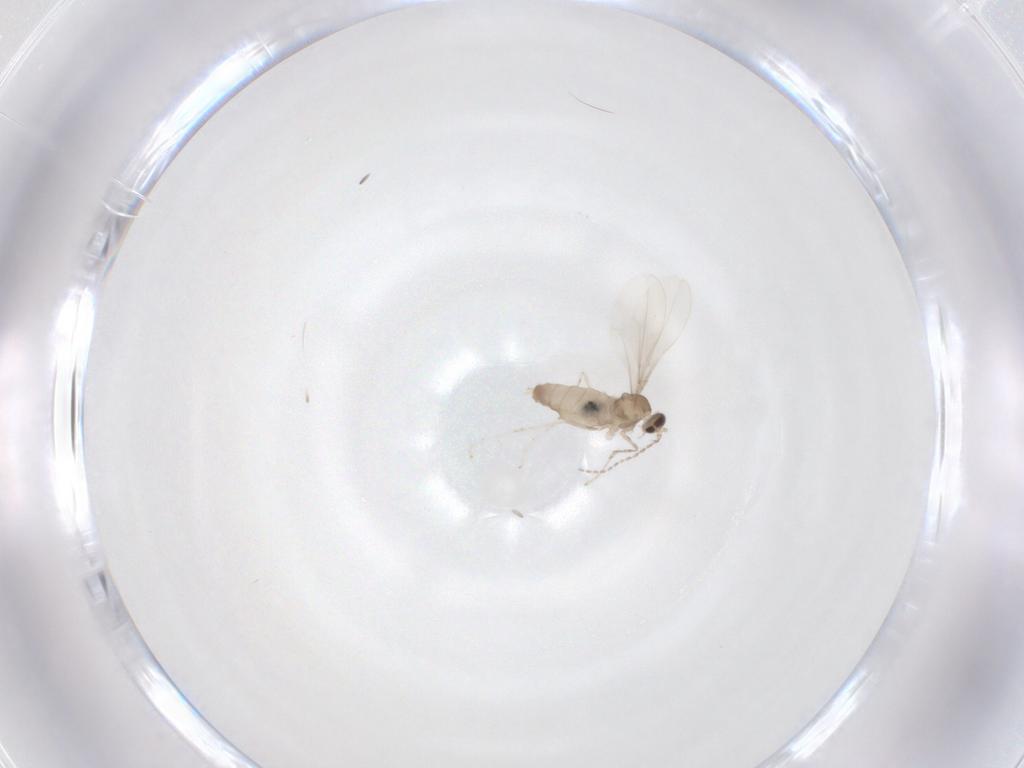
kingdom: Animalia
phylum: Arthropoda
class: Insecta
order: Diptera
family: Cecidomyiidae
